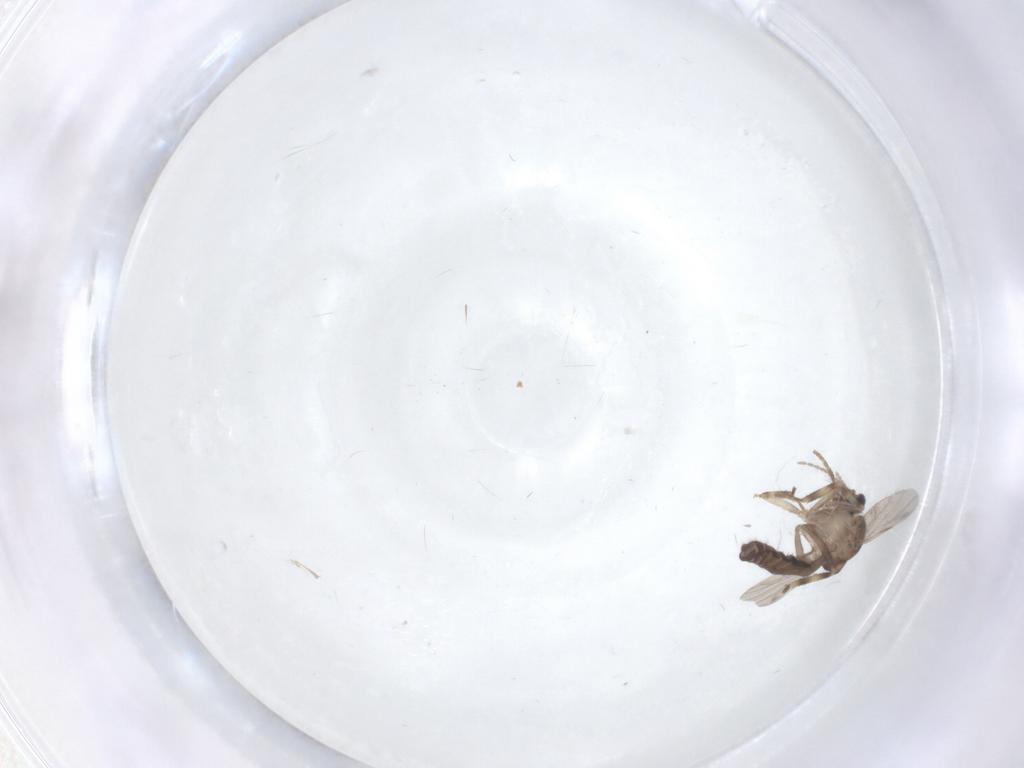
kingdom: Animalia
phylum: Arthropoda
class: Insecta
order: Diptera
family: Ceratopogonidae
